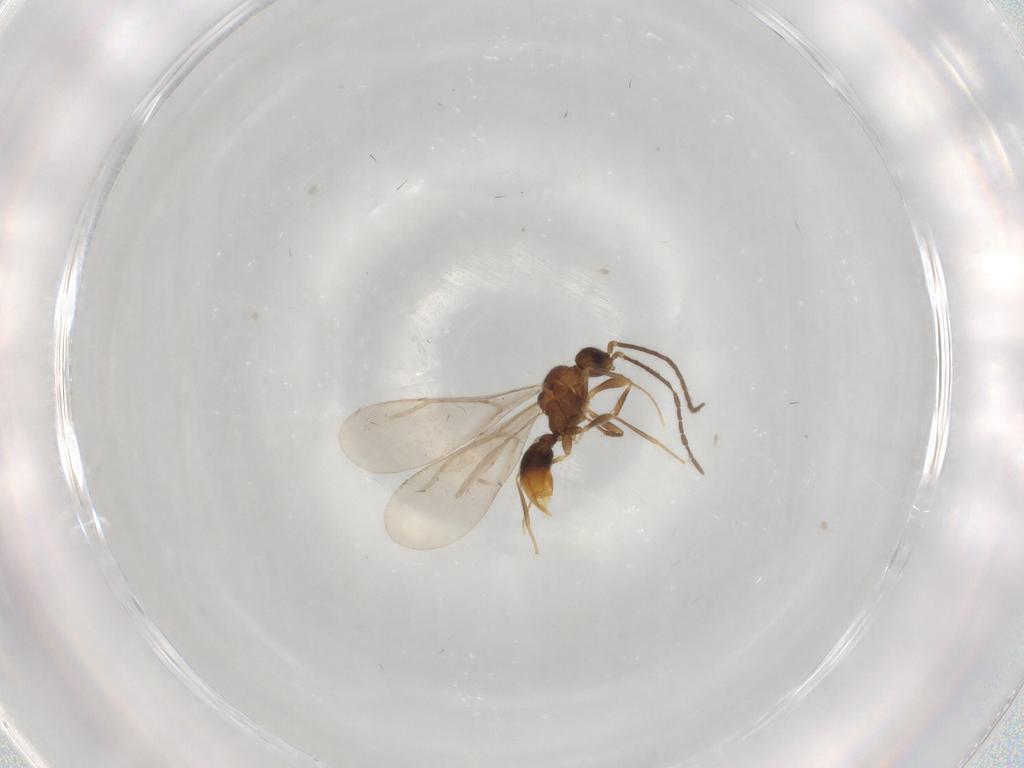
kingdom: Animalia
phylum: Arthropoda
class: Insecta
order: Hymenoptera
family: Formicidae
